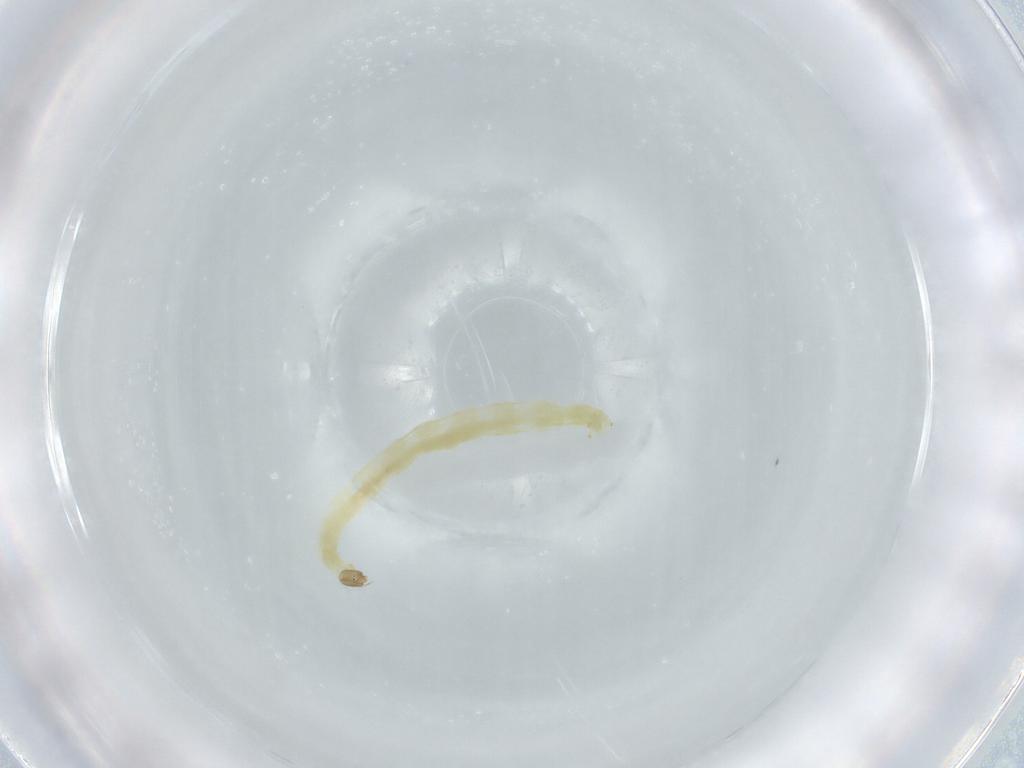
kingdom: Animalia
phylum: Arthropoda
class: Insecta
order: Diptera
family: Chironomidae
